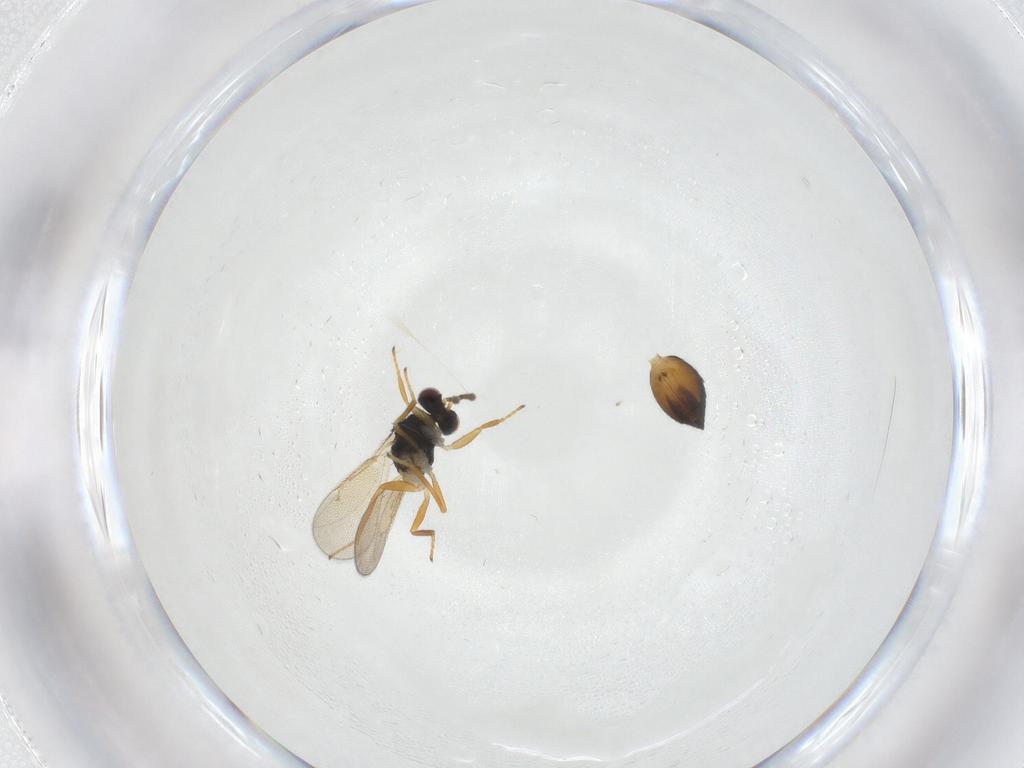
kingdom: Animalia
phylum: Arthropoda
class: Insecta
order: Hymenoptera
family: Eulophidae
